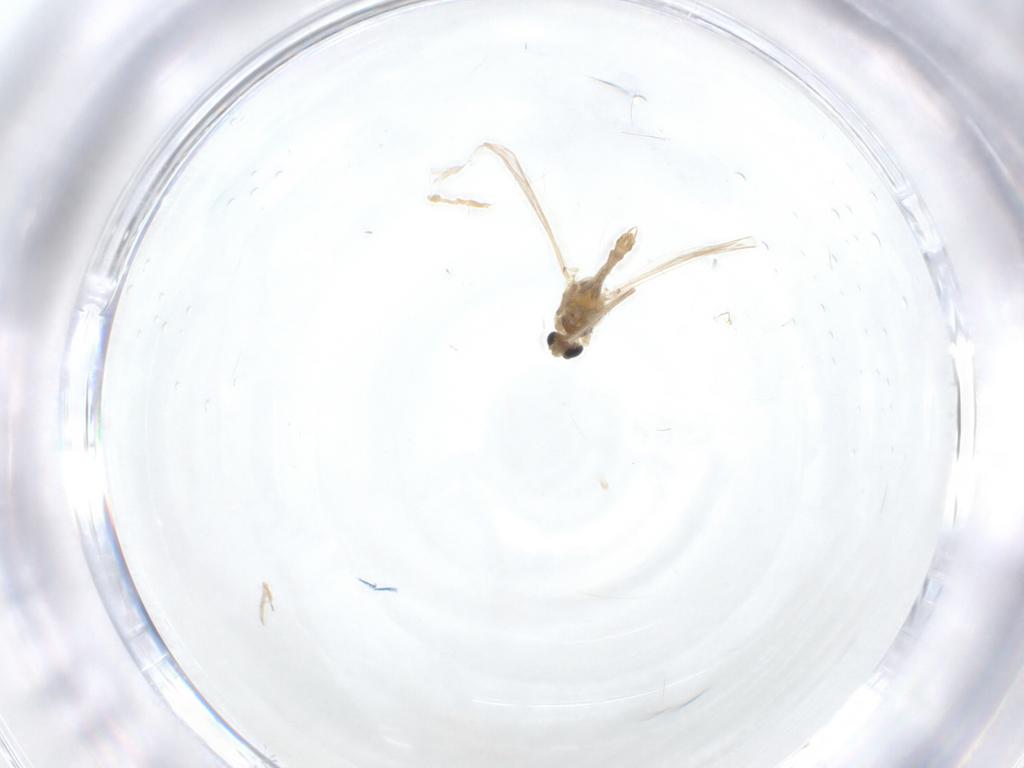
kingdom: Animalia
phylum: Arthropoda
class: Insecta
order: Diptera
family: Chironomidae
